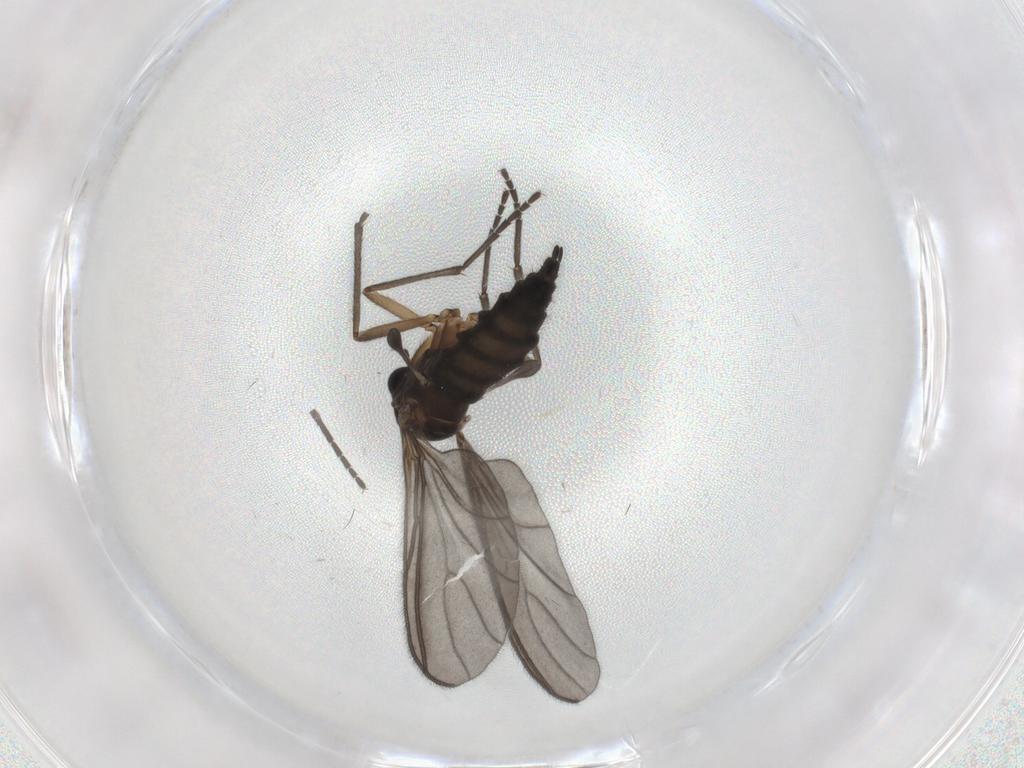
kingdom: Animalia
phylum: Arthropoda
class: Insecta
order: Diptera
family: Sciaridae
